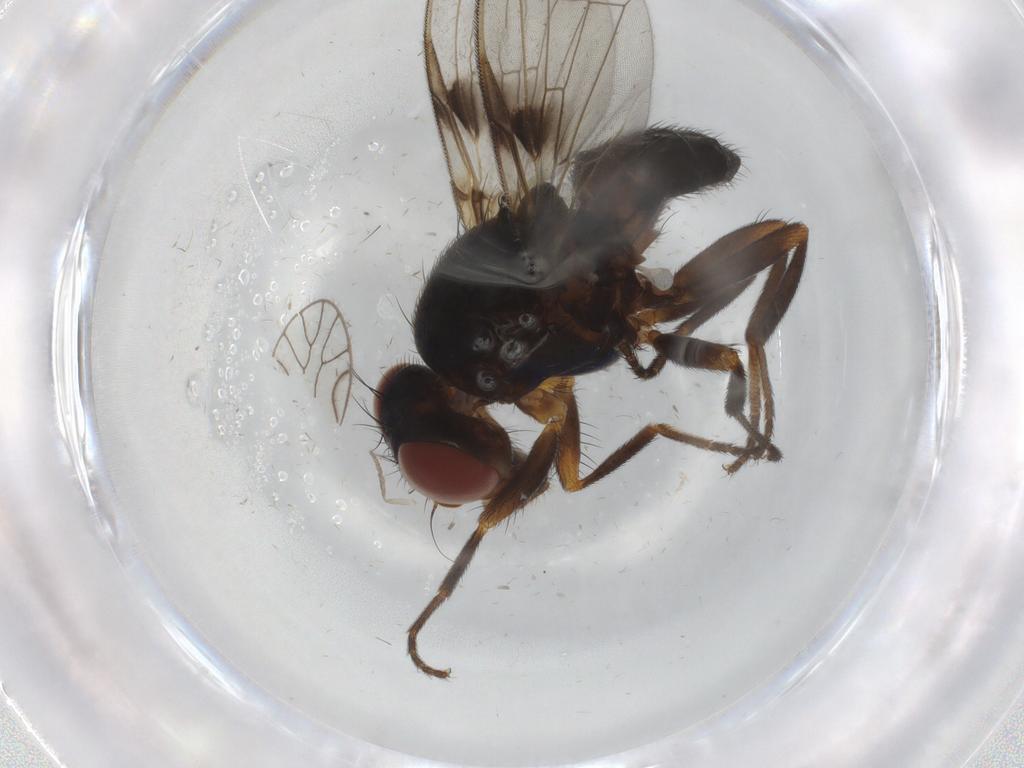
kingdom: Animalia
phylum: Arthropoda
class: Insecta
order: Diptera
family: Ulidiidae
